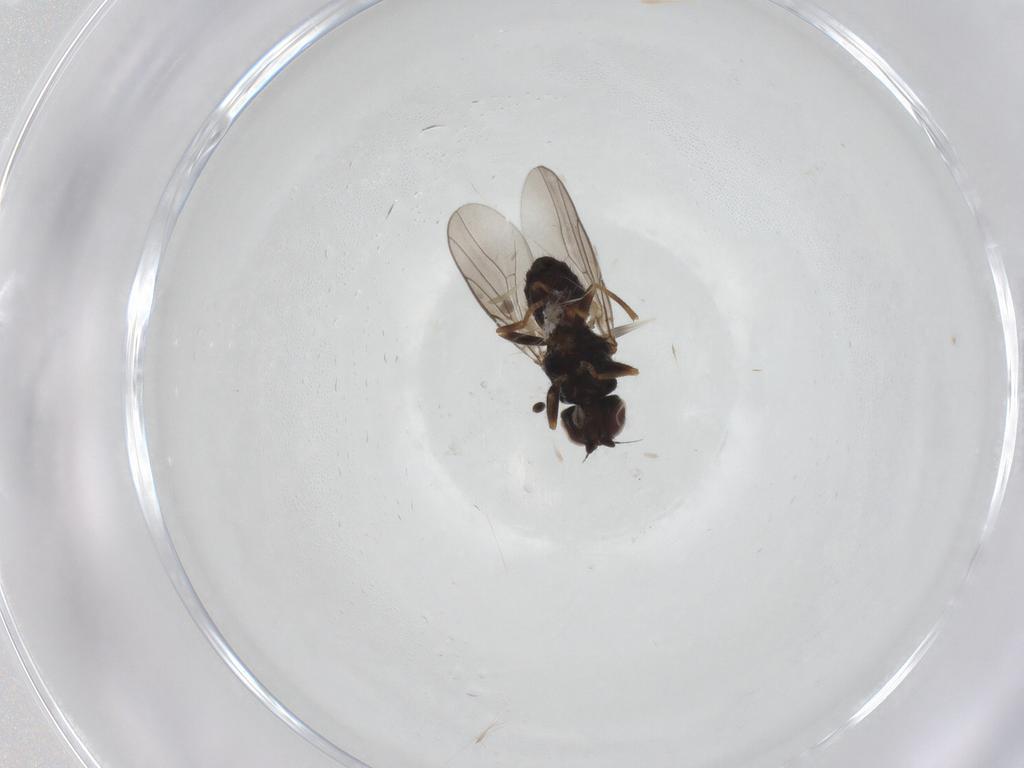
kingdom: Animalia
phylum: Arthropoda
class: Insecta
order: Diptera
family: Chloropidae
